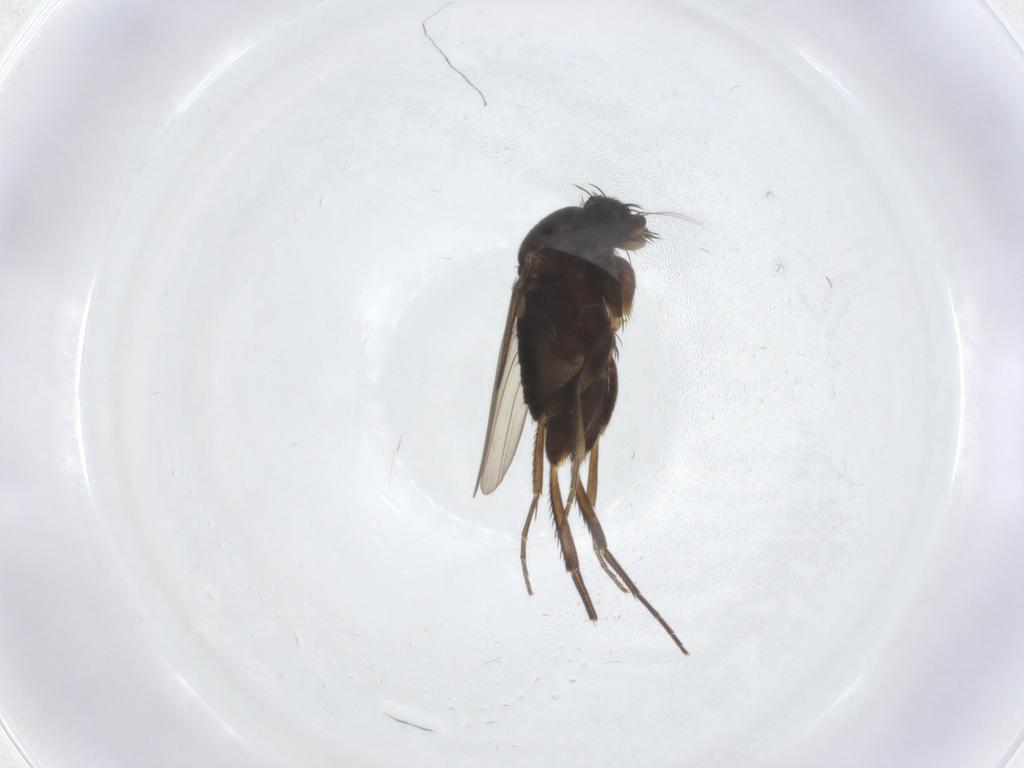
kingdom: Animalia
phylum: Arthropoda
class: Insecta
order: Diptera
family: Phoridae
